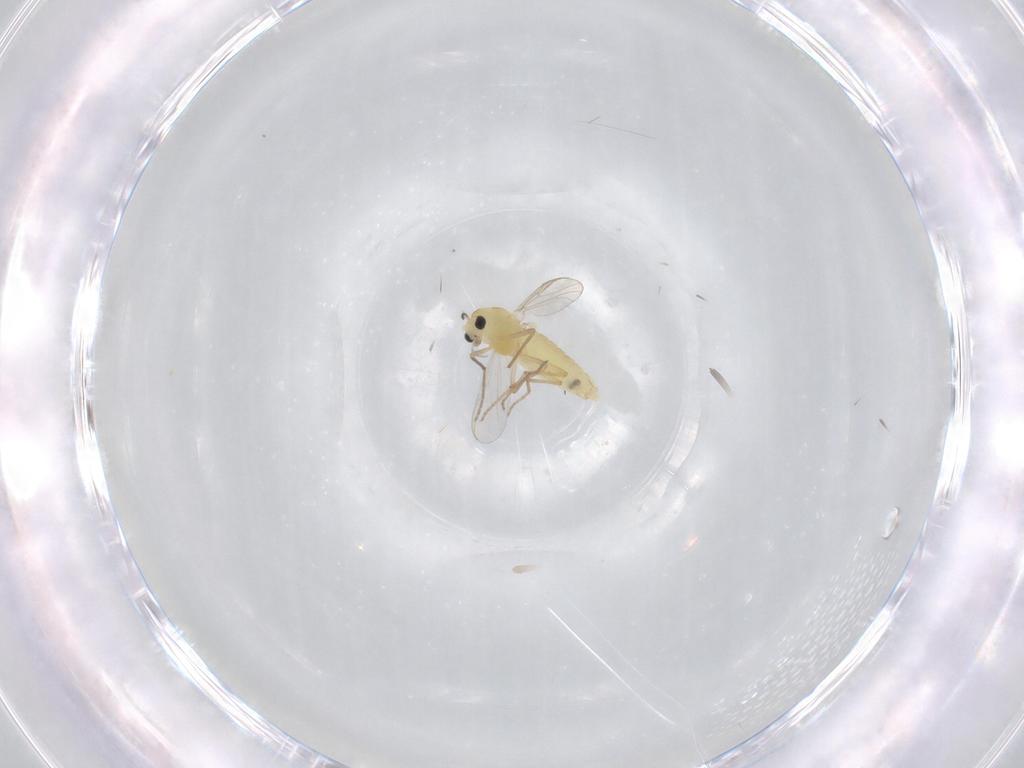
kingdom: Animalia
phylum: Arthropoda
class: Insecta
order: Diptera
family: Chironomidae
